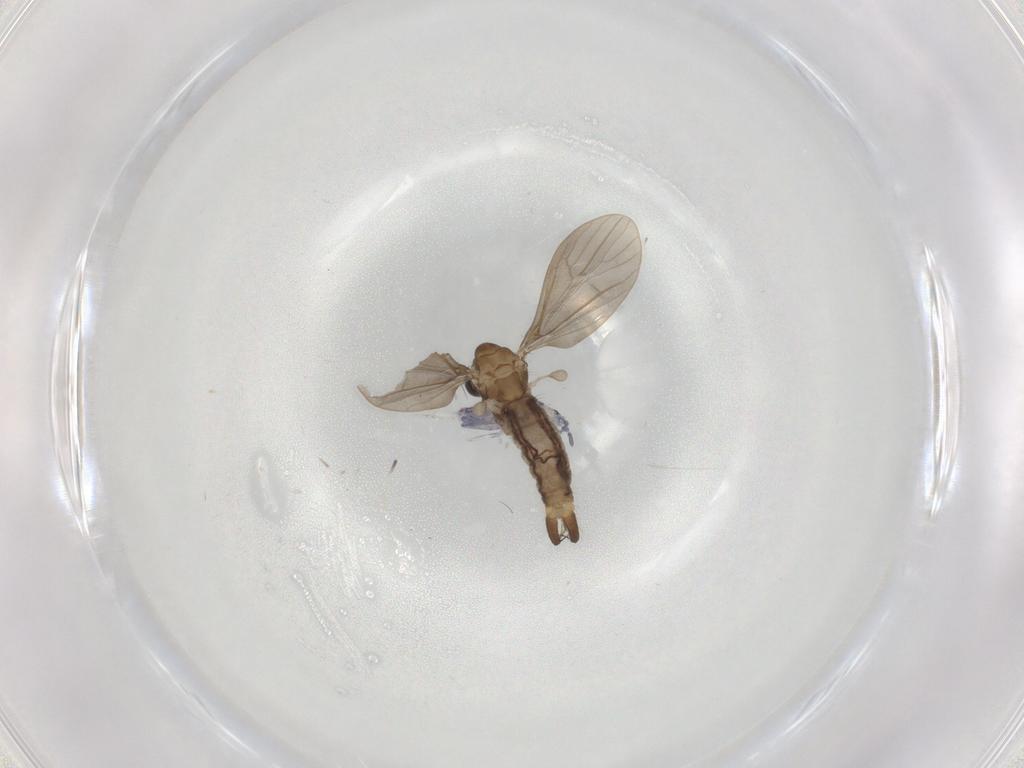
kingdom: Animalia
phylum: Arthropoda
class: Insecta
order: Diptera
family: Limoniidae
